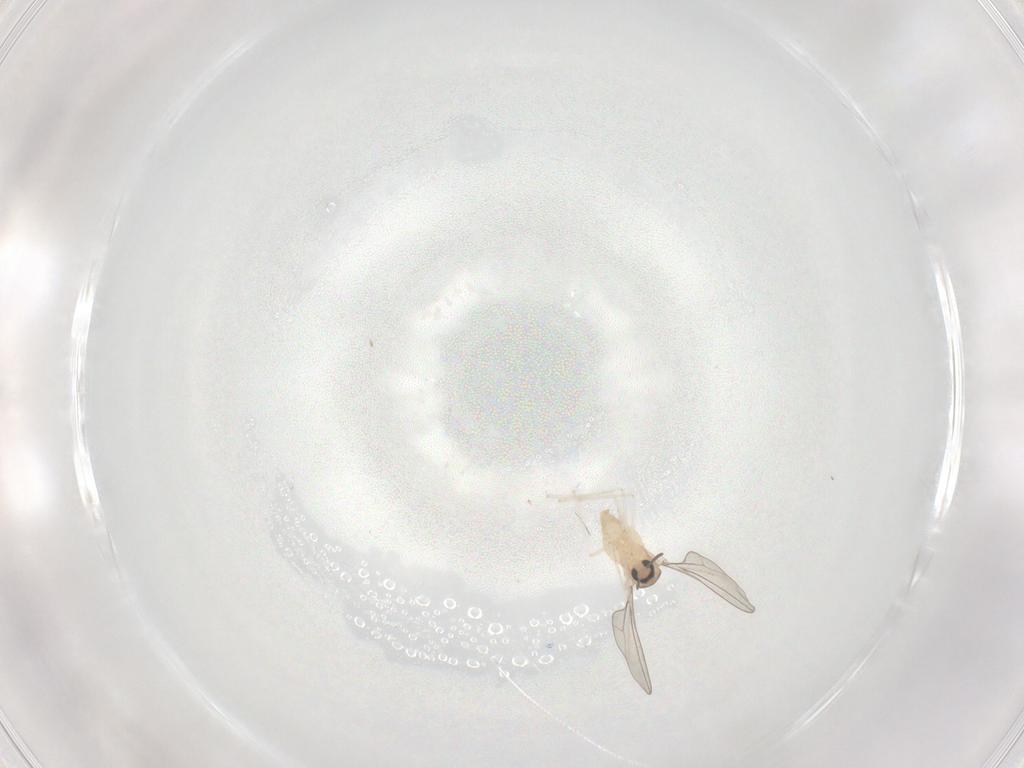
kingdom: Animalia
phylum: Arthropoda
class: Insecta
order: Diptera
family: Cecidomyiidae
